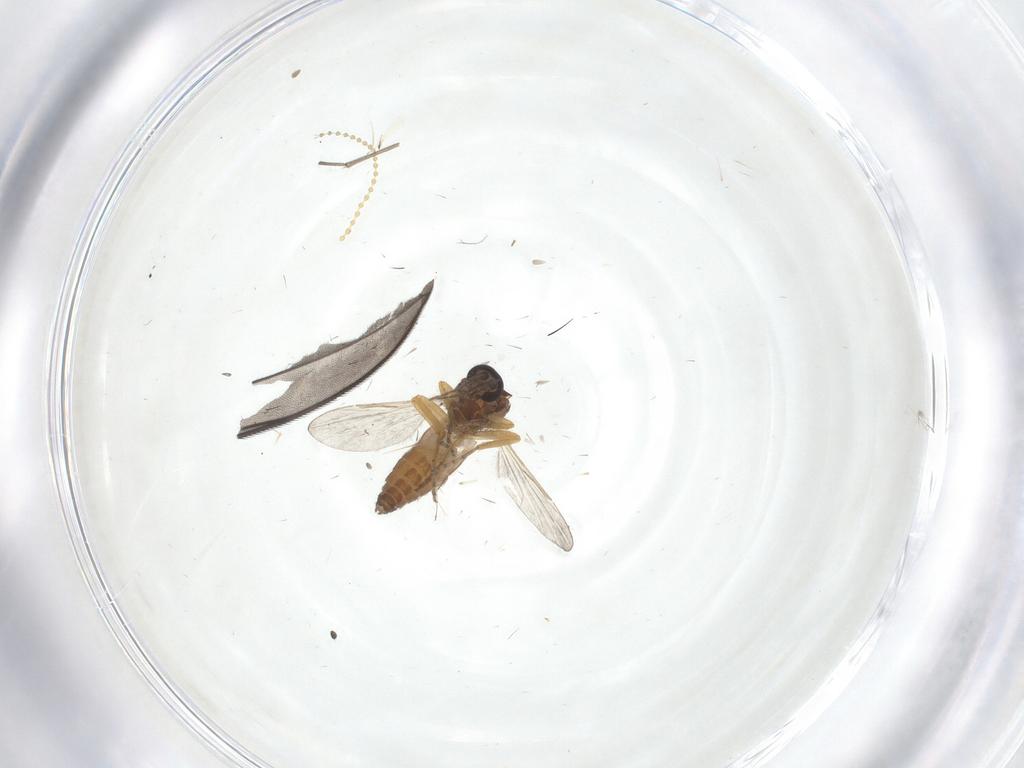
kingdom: Animalia
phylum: Arthropoda
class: Insecta
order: Diptera
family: Ceratopogonidae
